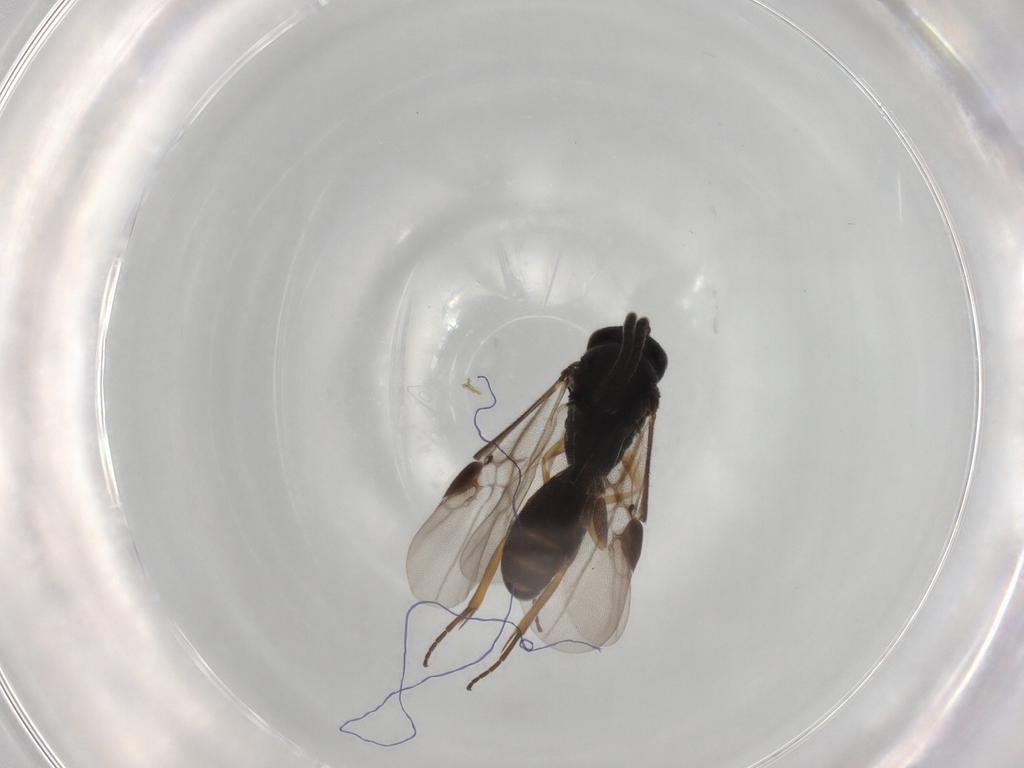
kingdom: Animalia
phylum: Arthropoda
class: Insecta
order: Hymenoptera
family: Braconidae
